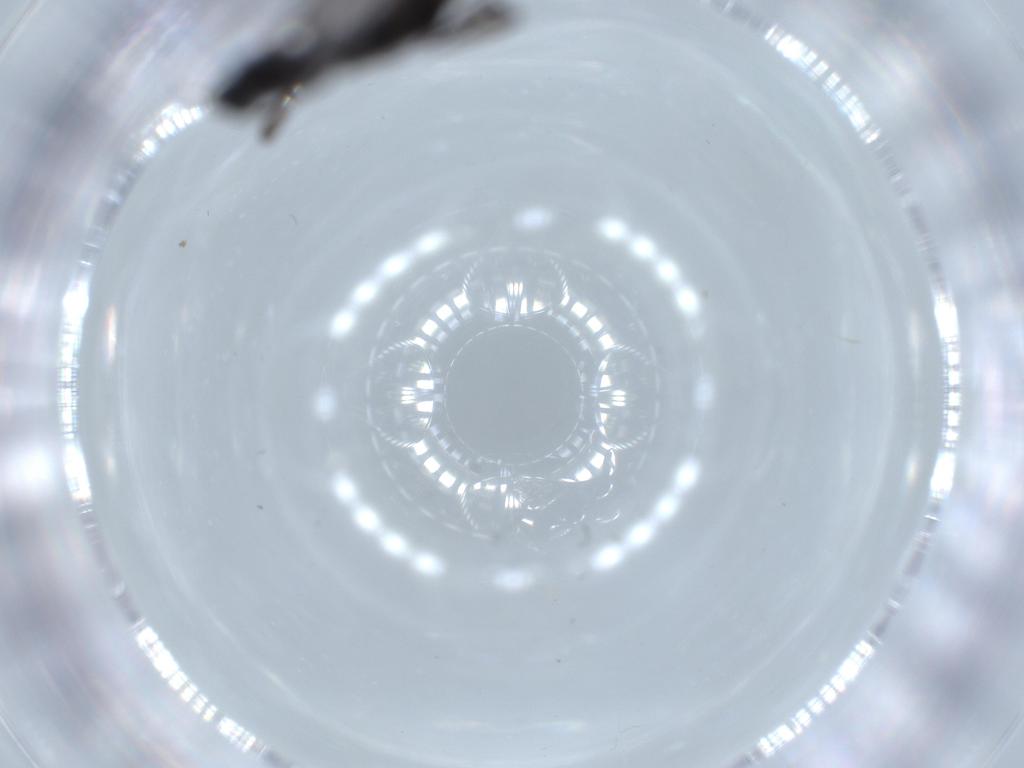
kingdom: Animalia
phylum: Arthropoda
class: Insecta
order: Diptera
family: Sciaridae
